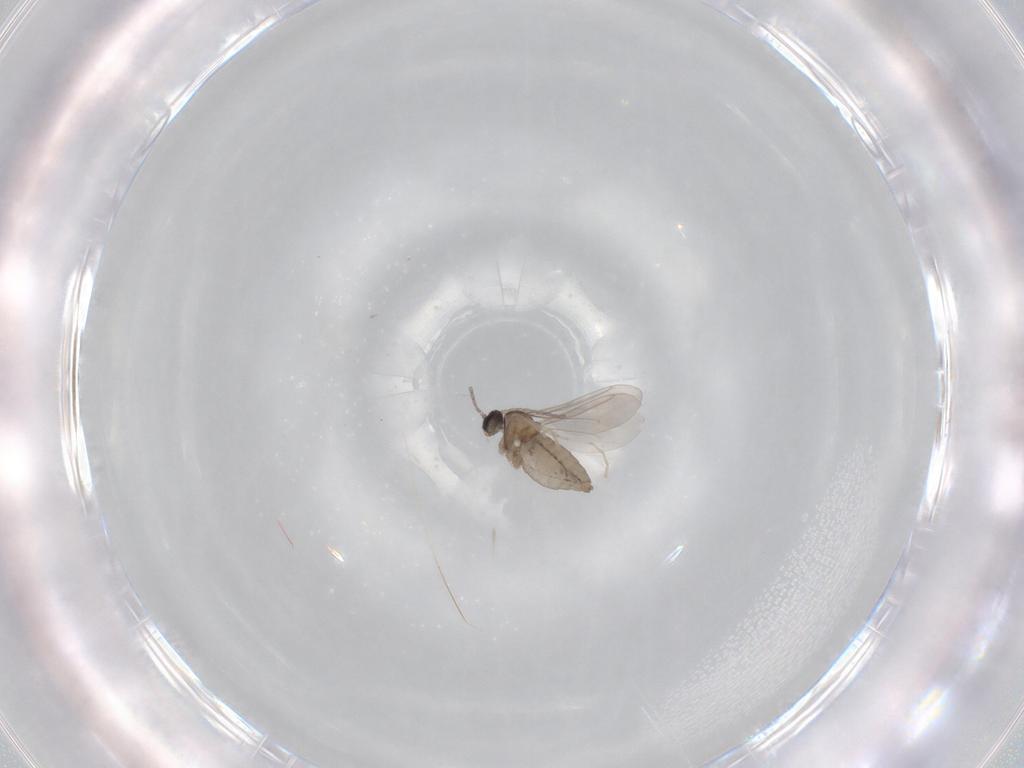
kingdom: Animalia
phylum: Arthropoda
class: Insecta
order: Diptera
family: Cecidomyiidae
